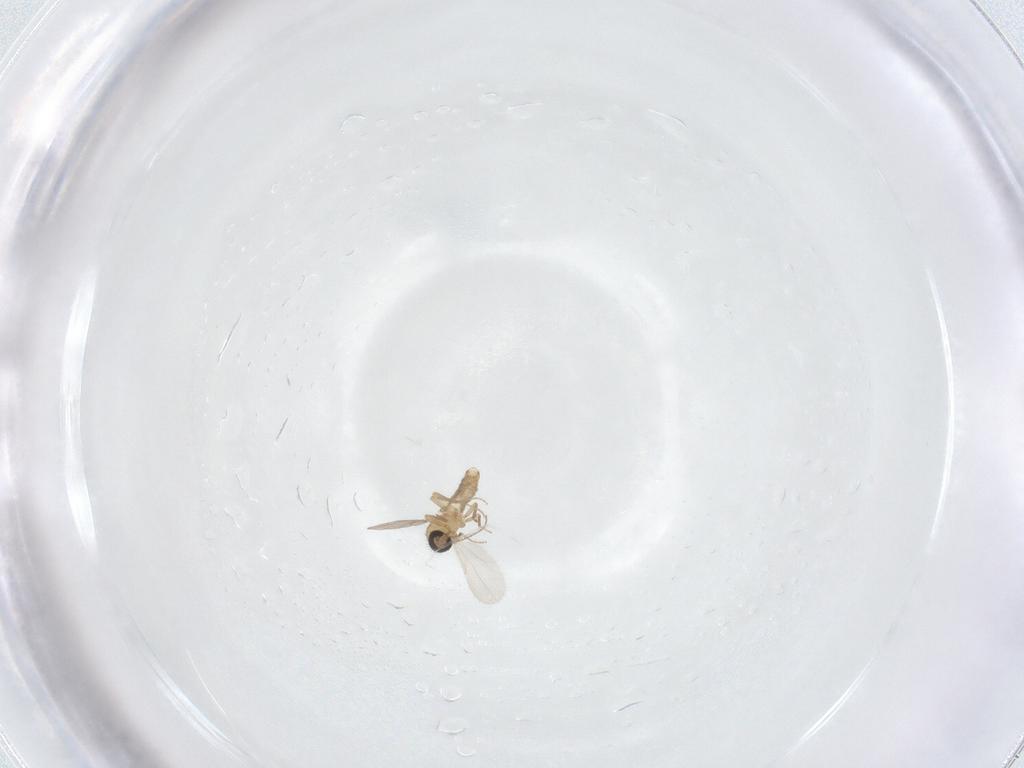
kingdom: Animalia
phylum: Arthropoda
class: Insecta
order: Diptera
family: Ceratopogonidae
